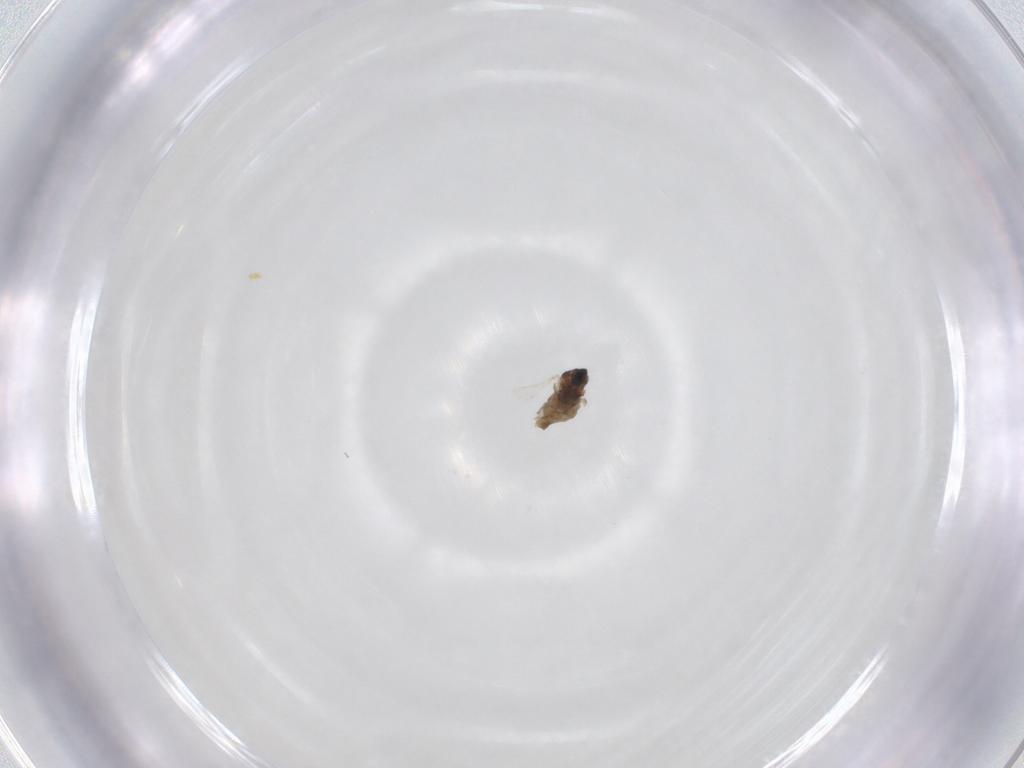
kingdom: Animalia
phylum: Arthropoda
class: Insecta
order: Diptera
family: Cecidomyiidae
